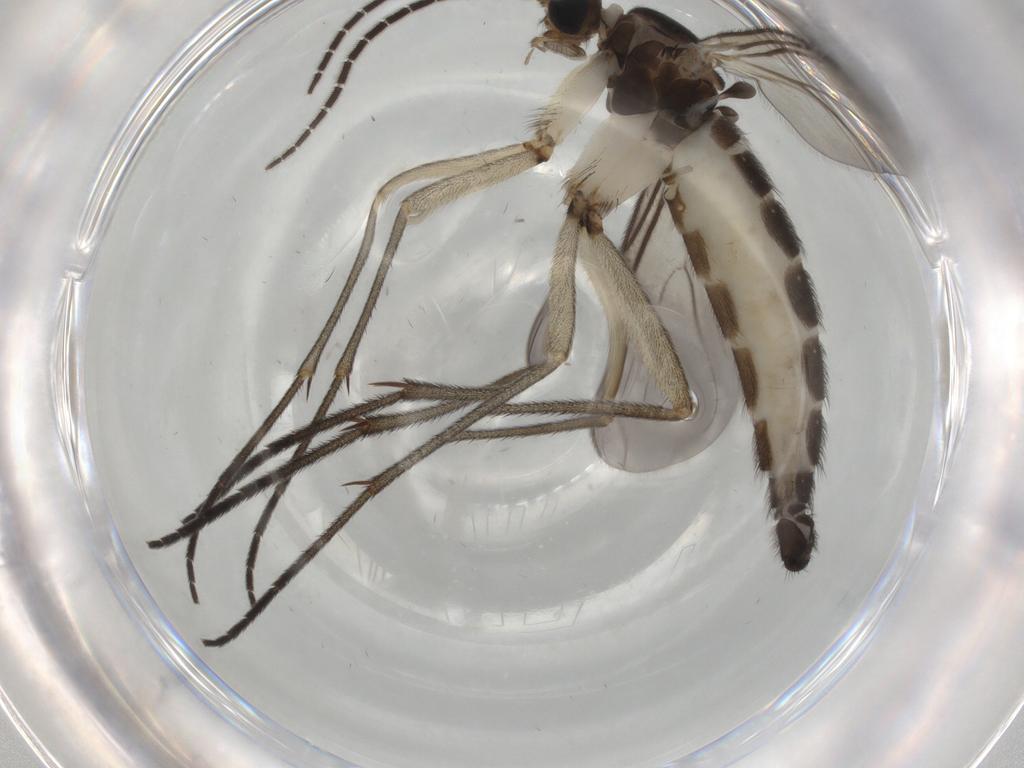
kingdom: Animalia
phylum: Arthropoda
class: Insecta
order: Diptera
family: Sciaridae
